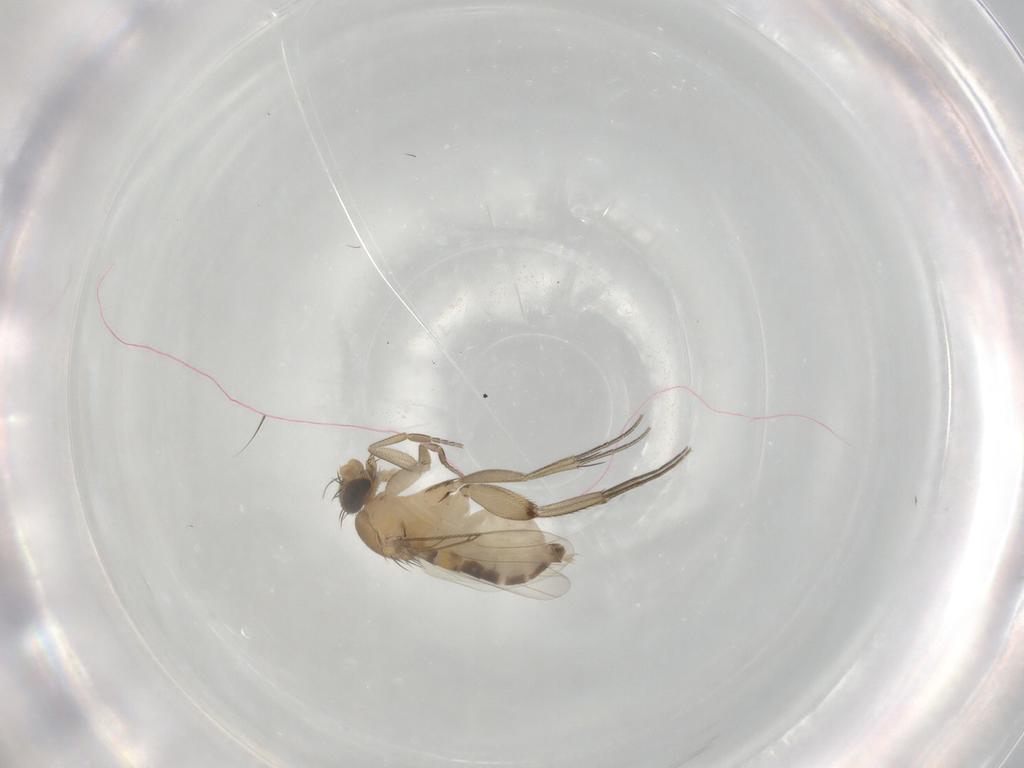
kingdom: Animalia
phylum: Arthropoda
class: Insecta
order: Diptera
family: Phoridae
